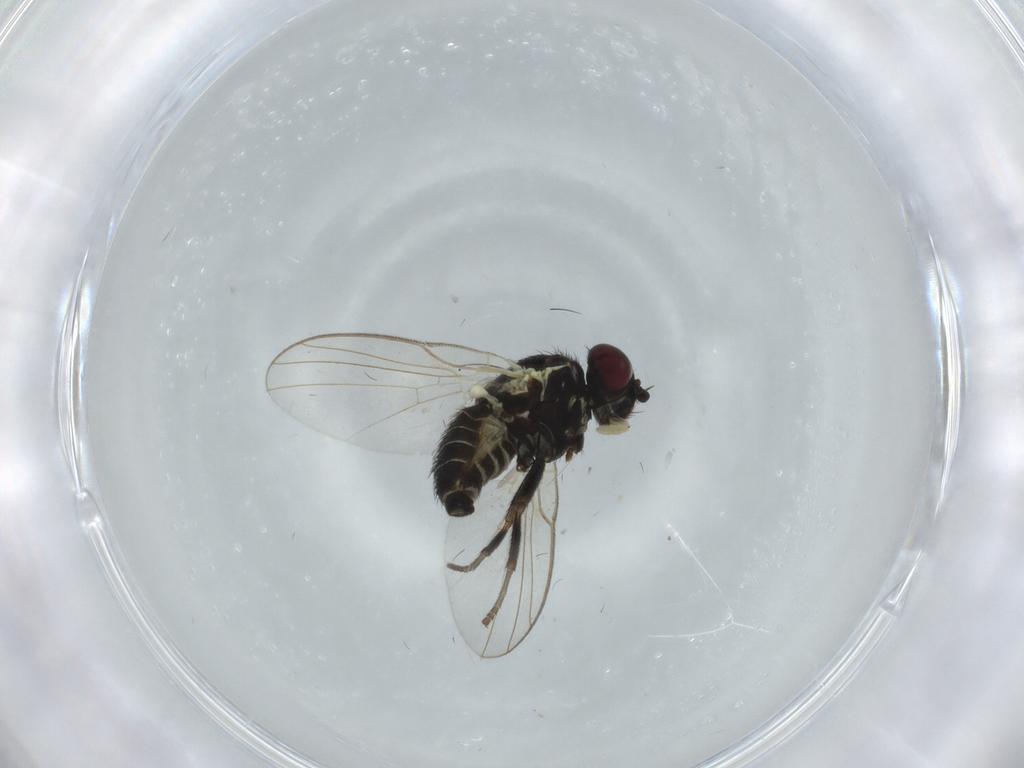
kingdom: Animalia
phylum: Arthropoda
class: Insecta
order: Diptera
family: Agromyzidae
